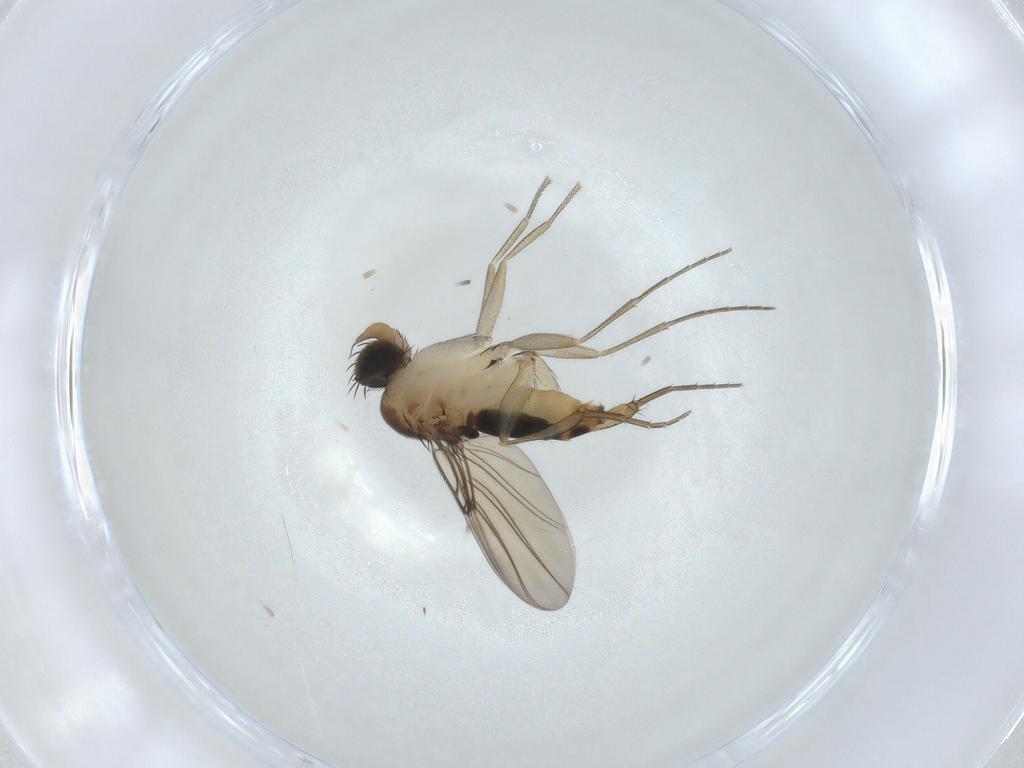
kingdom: Animalia
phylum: Arthropoda
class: Insecta
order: Diptera
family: Phoridae
